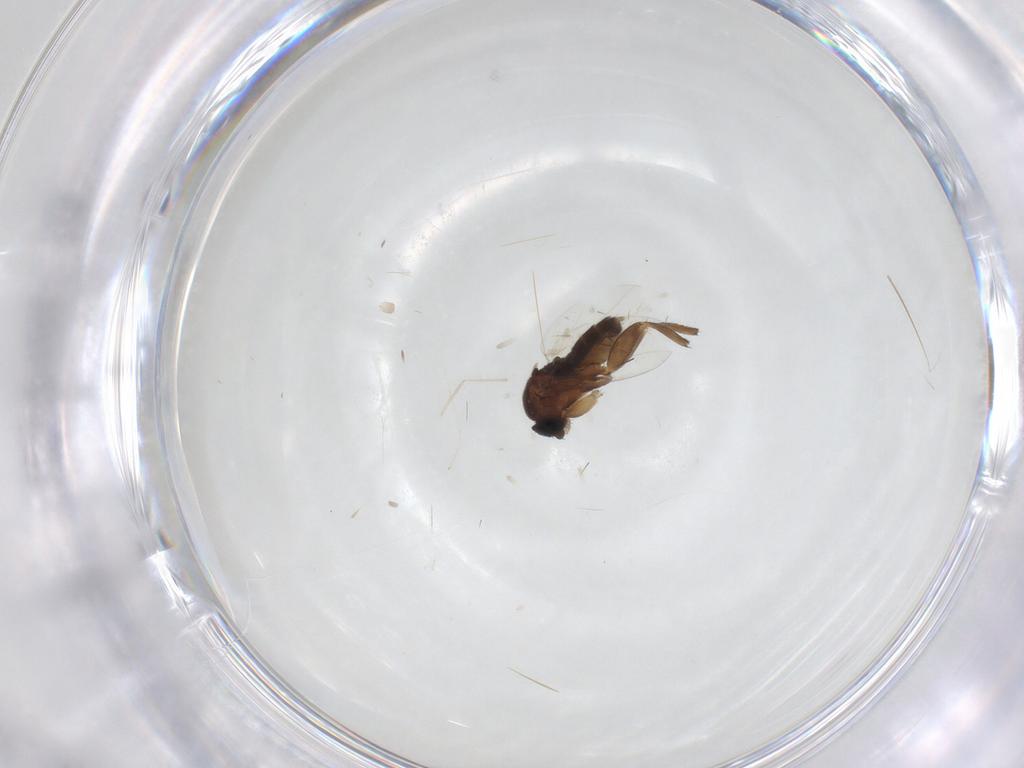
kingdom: Animalia
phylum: Arthropoda
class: Insecta
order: Diptera
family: Phoridae
